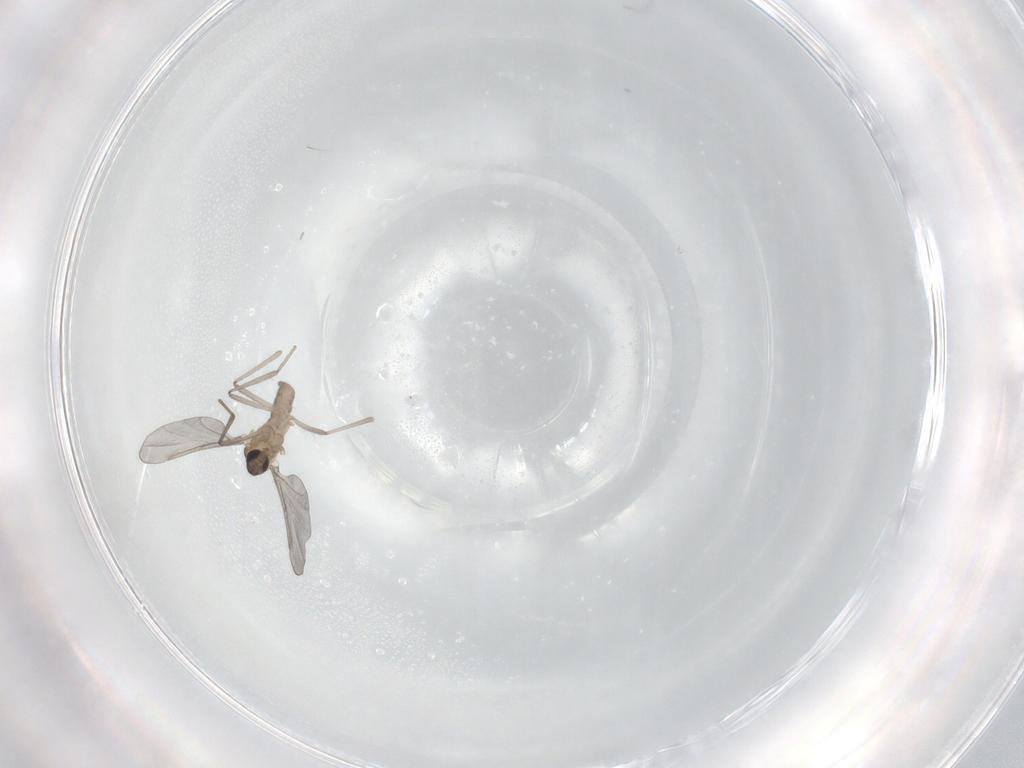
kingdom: Animalia
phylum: Arthropoda
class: Insecta
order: Diptera
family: Cecidomyiidae
